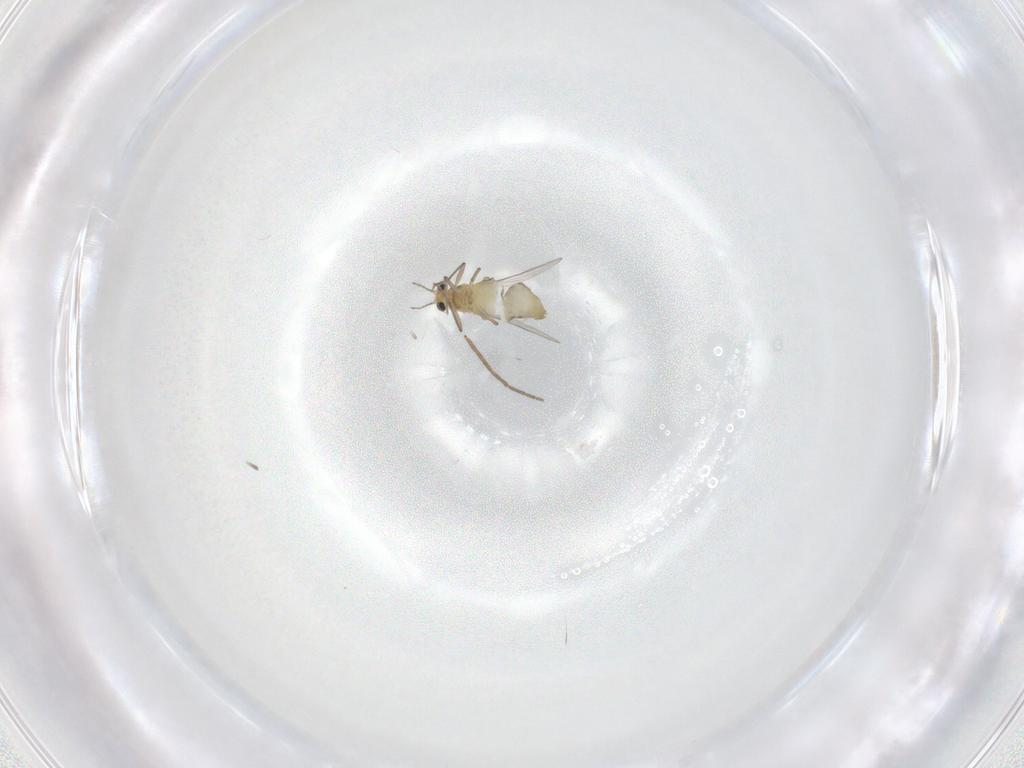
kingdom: Animalia
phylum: Arthropoda
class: Insecta
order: Diptera
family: Chironomidae
